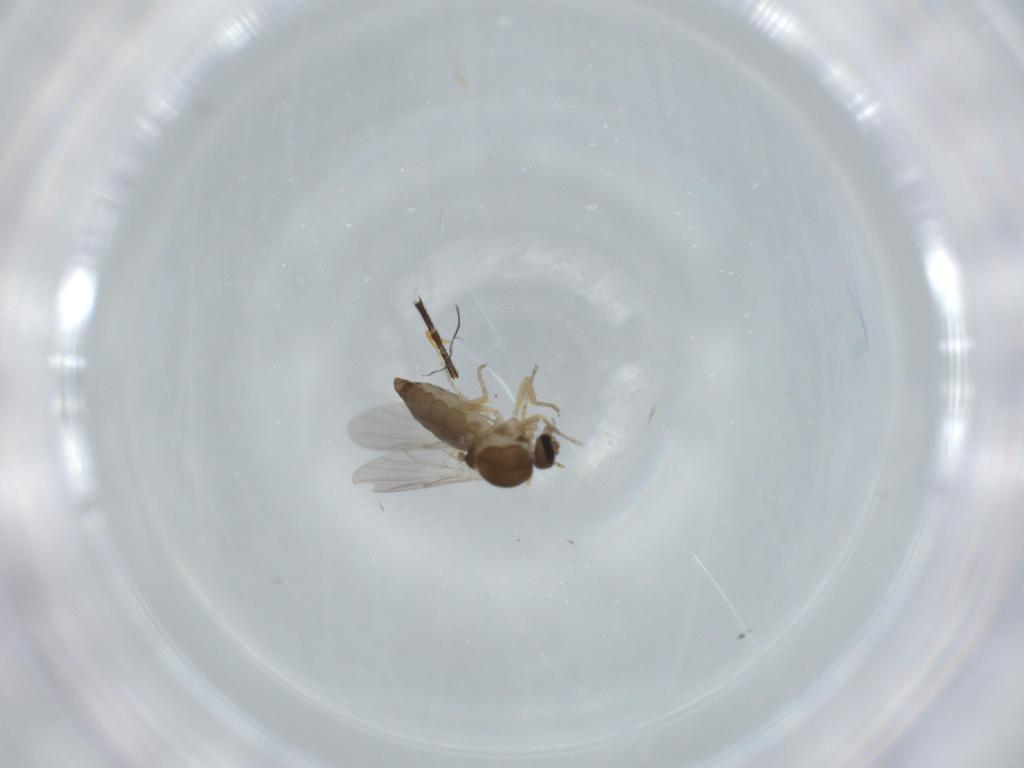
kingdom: Animalia
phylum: Arthropoda
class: Insecta
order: Diptera
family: Ceratopogonidae
